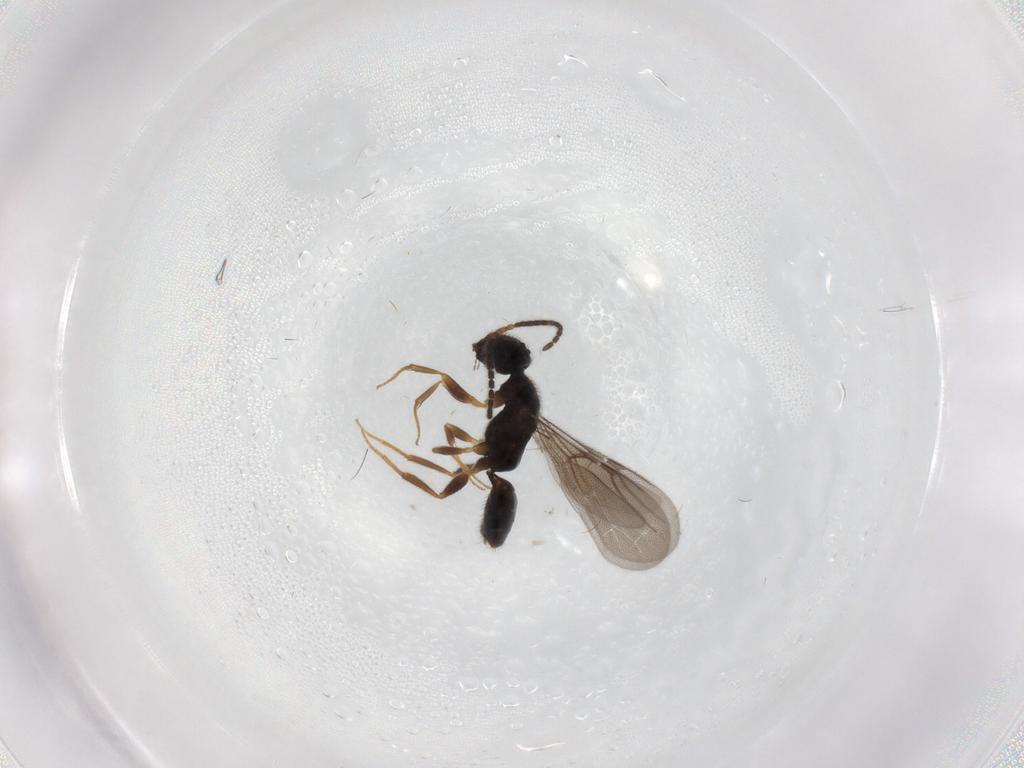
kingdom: Animalia
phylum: Arthropoda
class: Insecta
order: Hymenoptera
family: Bethylidae
